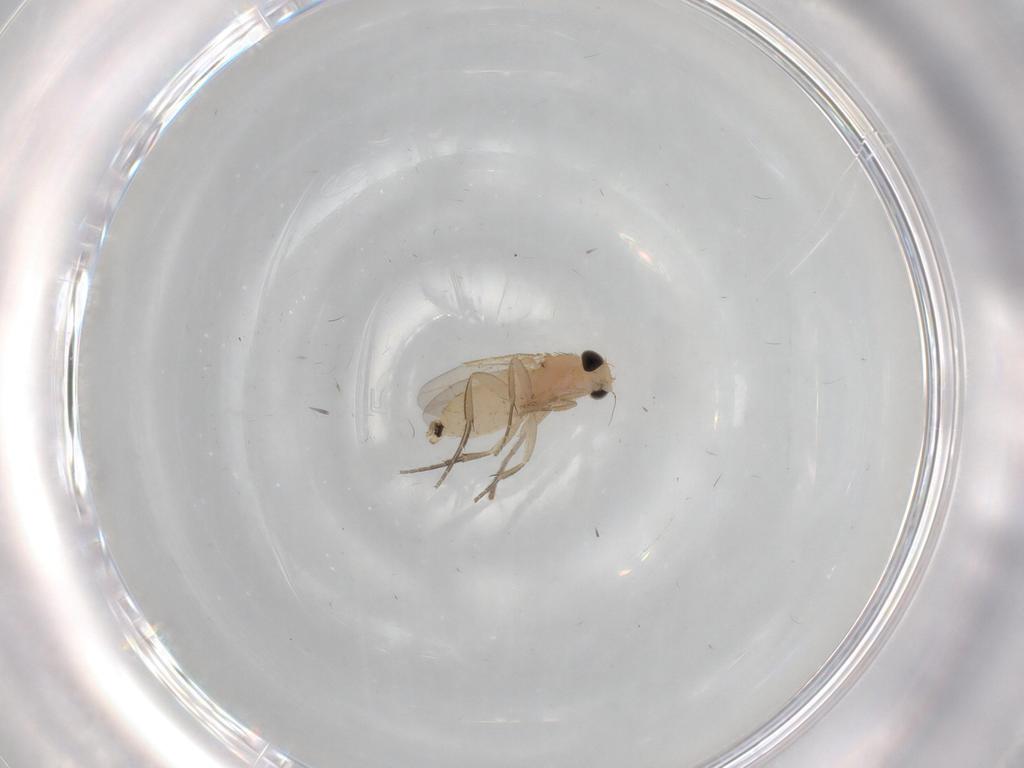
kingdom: Animalia
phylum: Arthropoda
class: Insecta
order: Diptera
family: Phoridae
